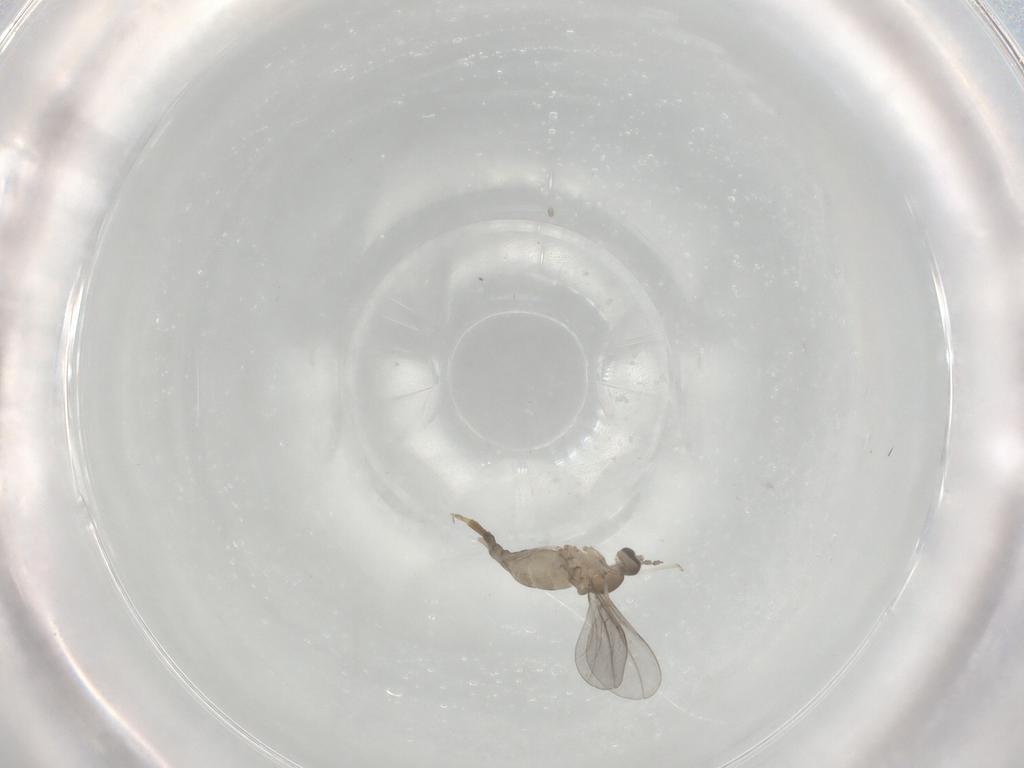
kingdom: Animalia
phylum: Arthropoda
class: Insecta
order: Diptera
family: Cecidomyiidae
